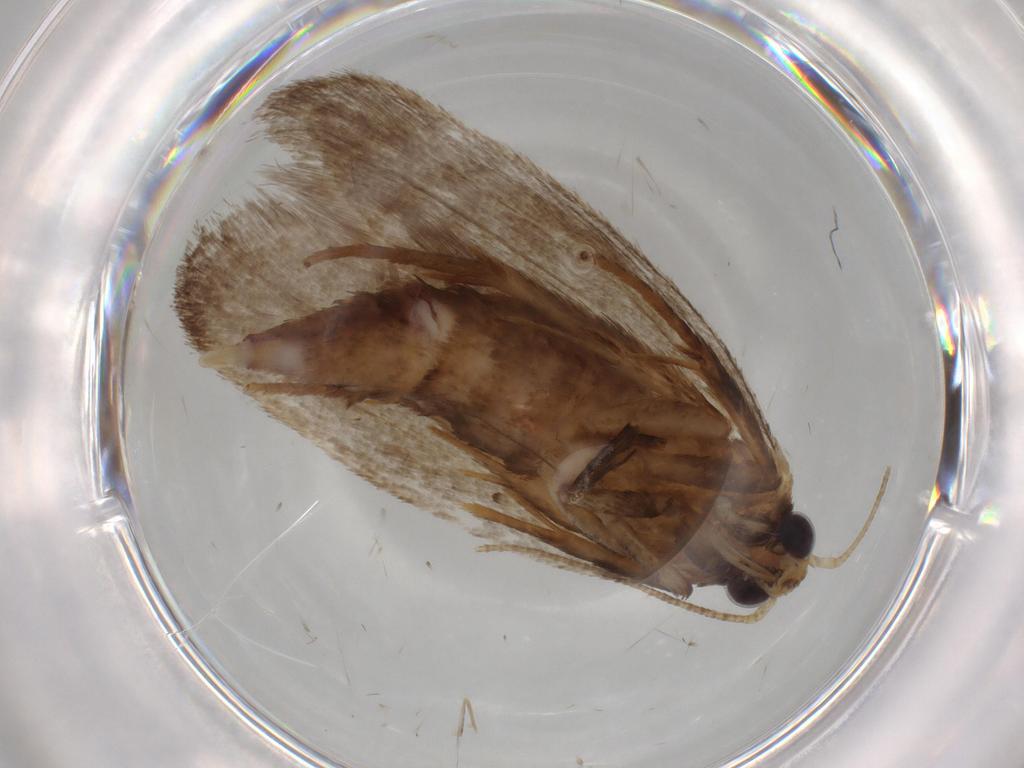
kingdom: Animalia
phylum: Arthropoda
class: Insecta
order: Lepidoptera
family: Oecophoridae
